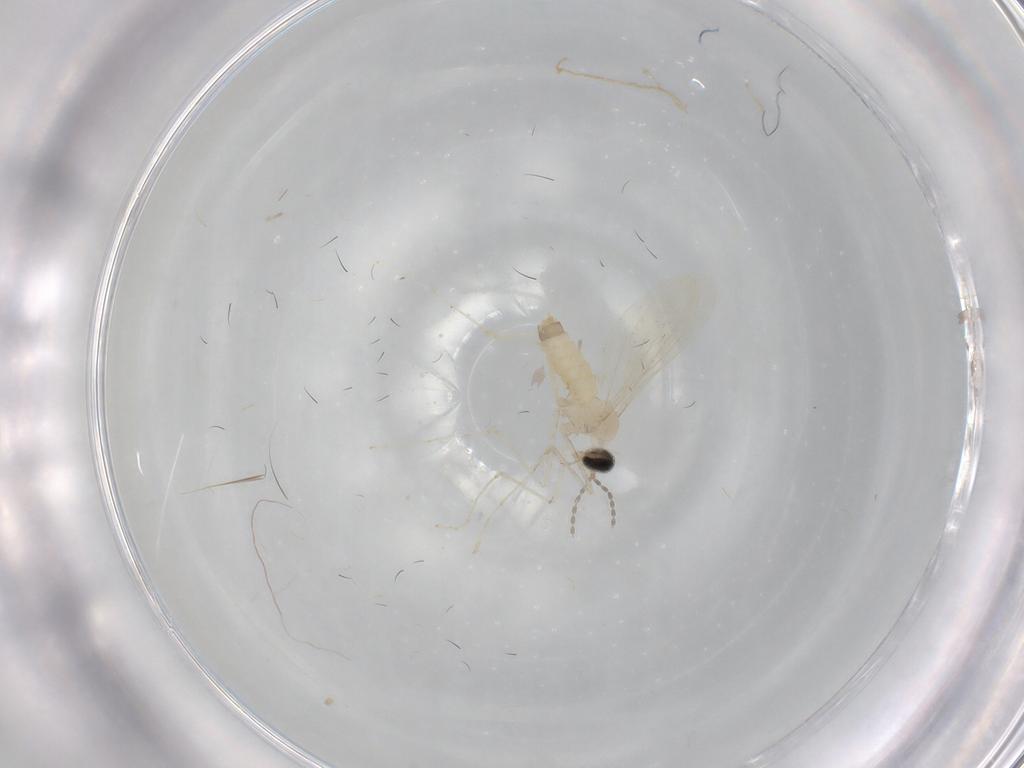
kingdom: Animalia
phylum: Arthropoda
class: Insecta
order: Diptera
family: Cecidomyiidae
